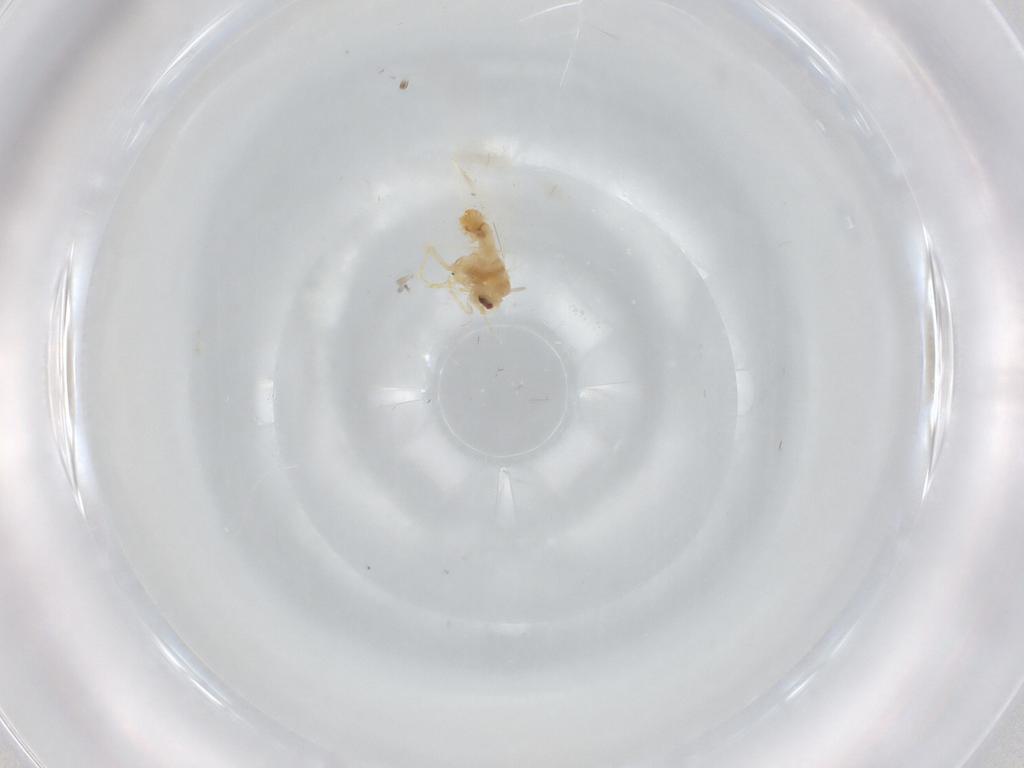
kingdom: Animalia
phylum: Arthropoda
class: Insecta
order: Hemiptera
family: Aleyrodidae
